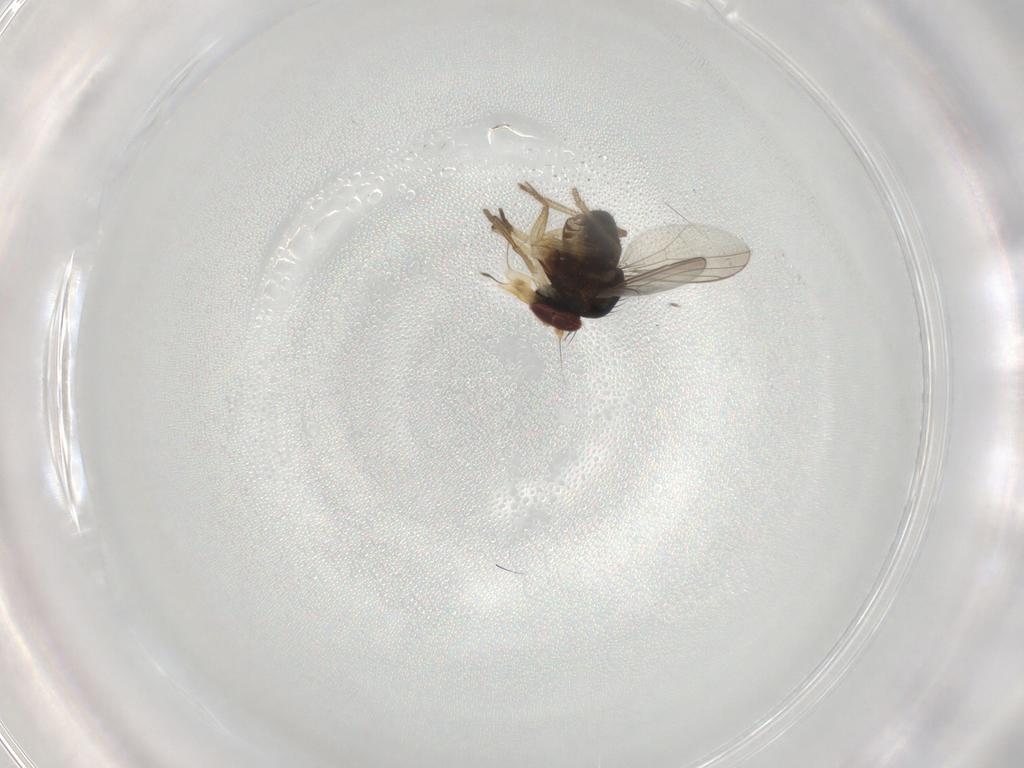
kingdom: Animalia
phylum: Arthropoda
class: Insecta
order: Diptera
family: Dolichopodidae
